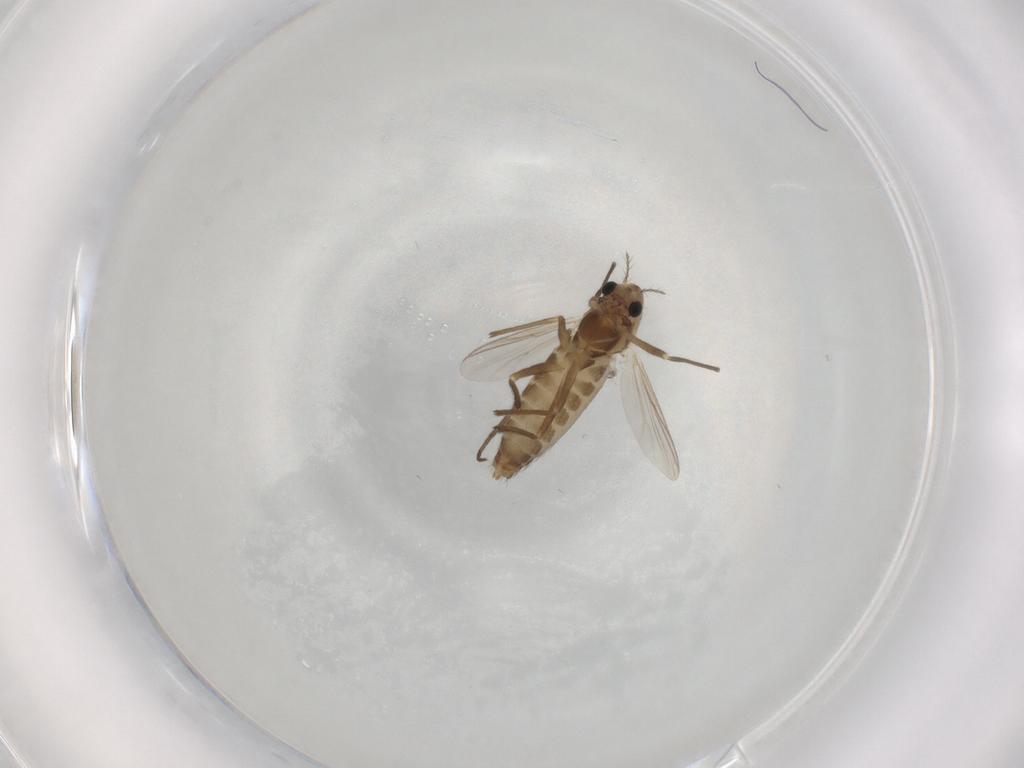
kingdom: Animalia
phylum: Arthropoda
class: Insecta
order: Diptera
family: Chironomidae
